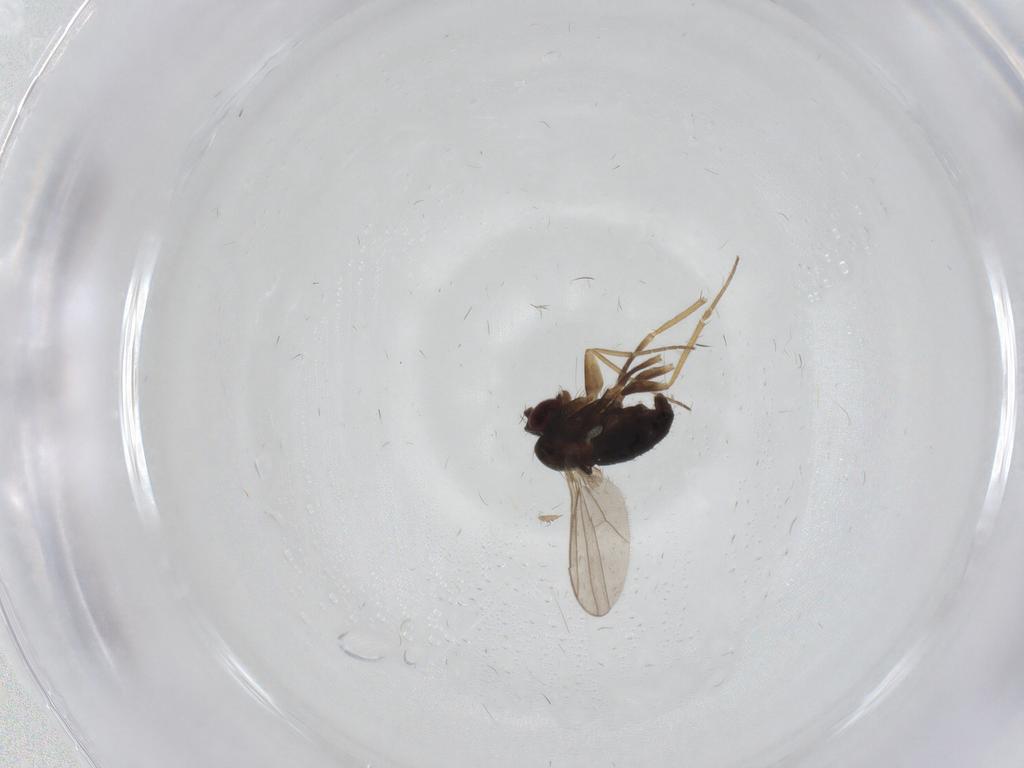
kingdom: Animalia
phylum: Arthropoda
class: Insecta
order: Diptera
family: Dolichopodidae
